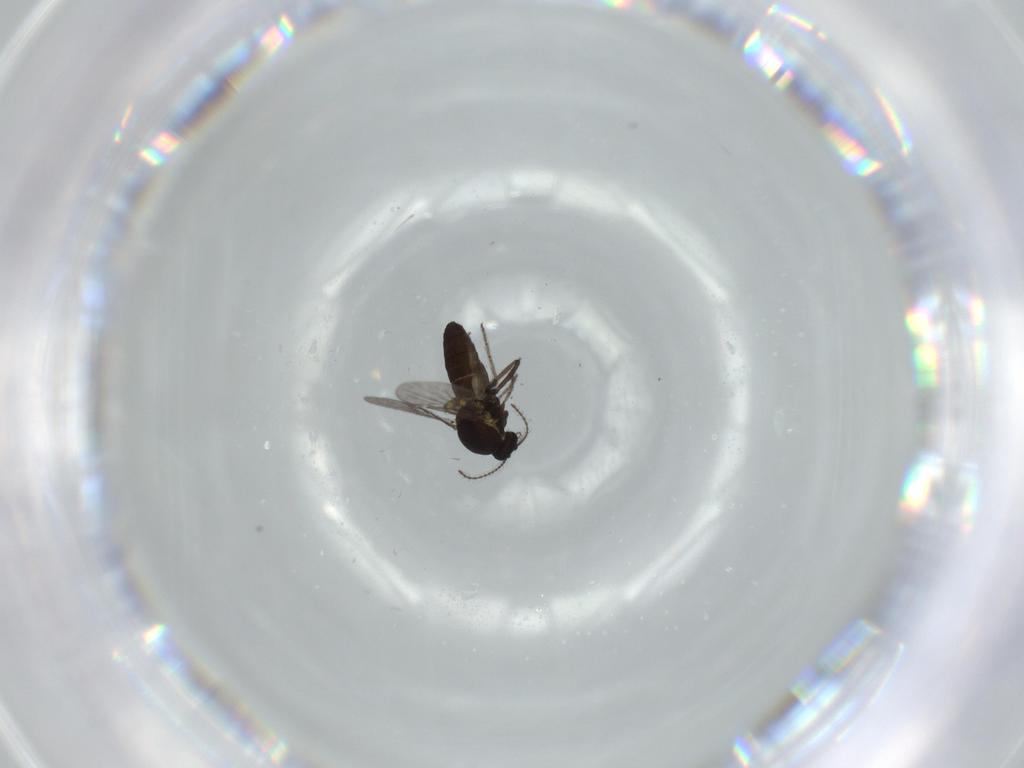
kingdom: Animalia
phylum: Arthropoda
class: Insecta
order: Diptera
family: Ceratopogonidae
